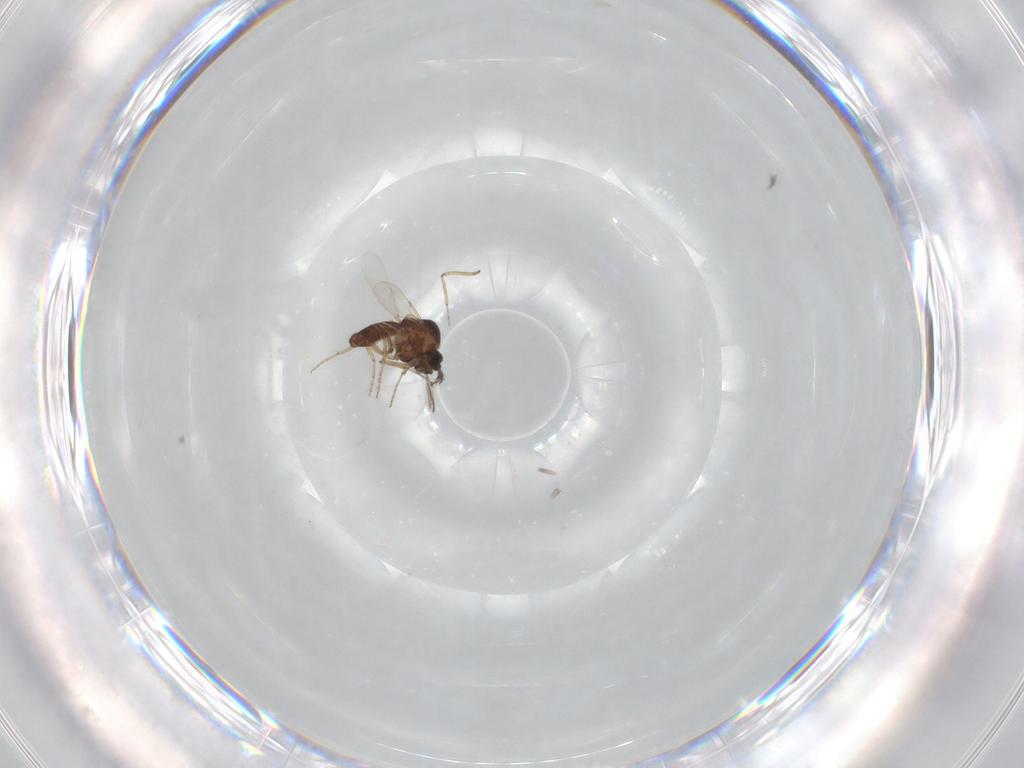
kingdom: Animalia
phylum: Arthropoda
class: Insecta
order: Diptera
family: Ceratopogonidae
